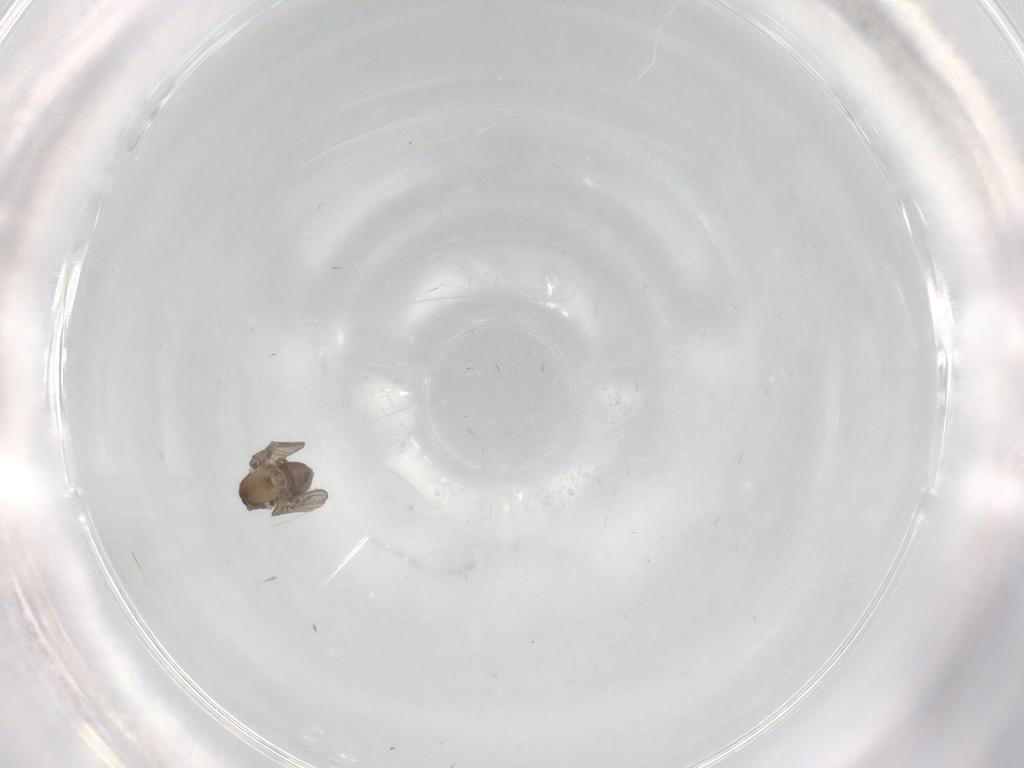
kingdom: Animalia
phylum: Arthropoda
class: Insecta
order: Diptera
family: Psychodidae
